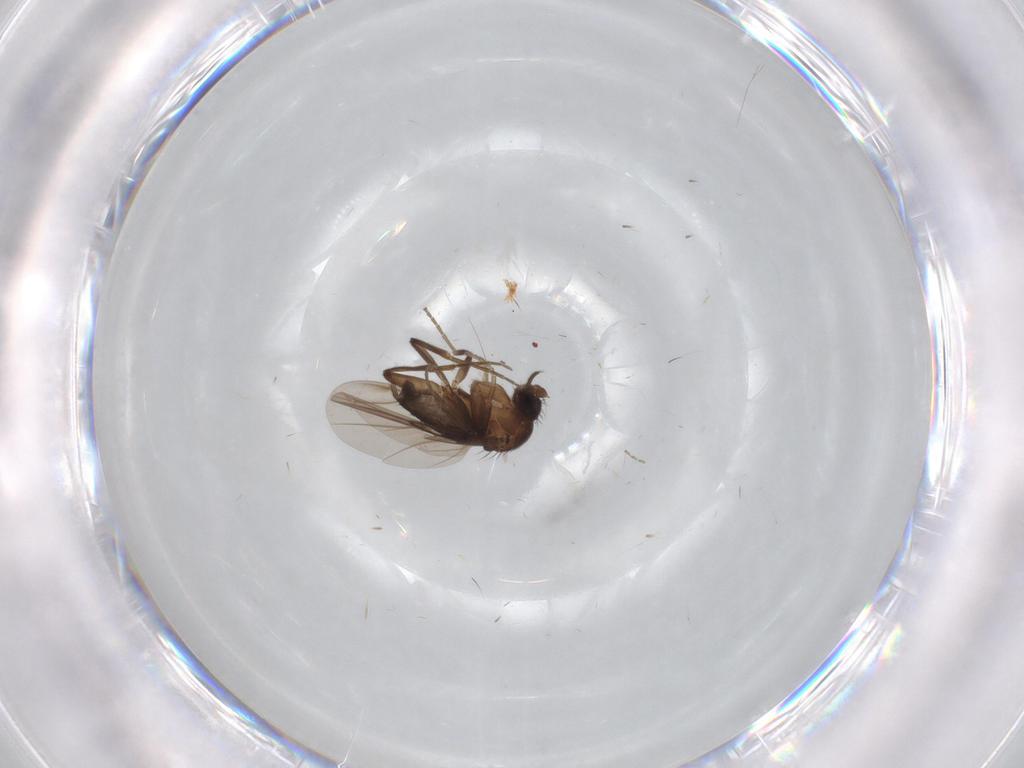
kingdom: Animalia
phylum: Arthropoda
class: Insecta
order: Diptera
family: Phoridae
